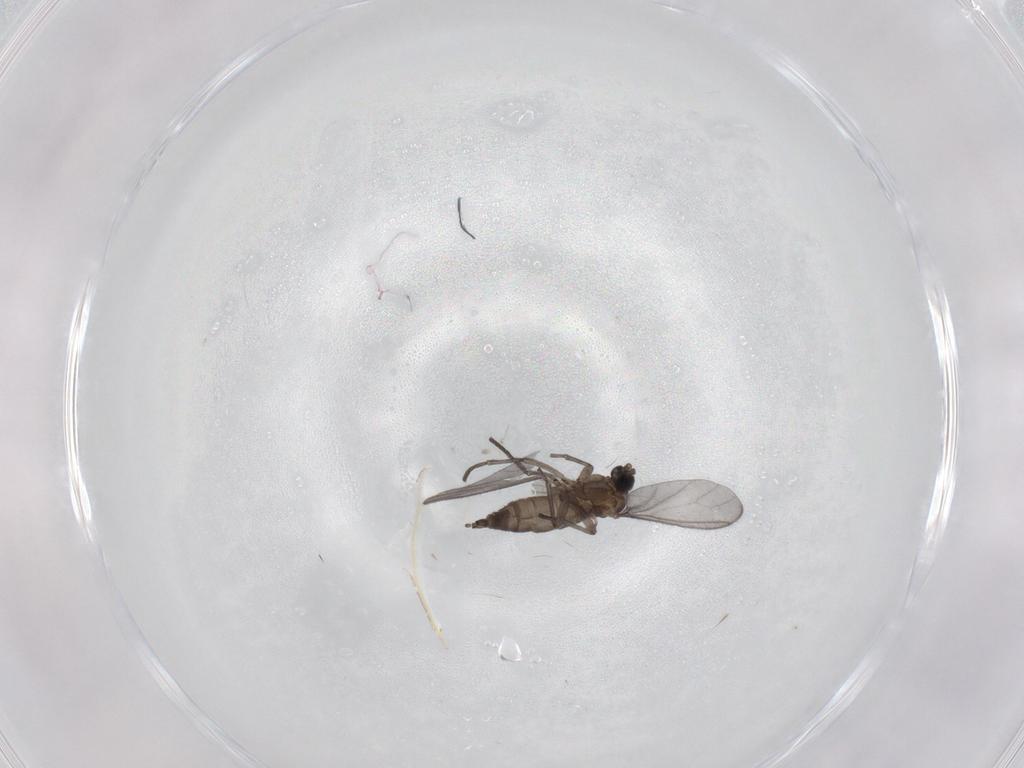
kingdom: Animalia
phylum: Arthropoda
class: Insecta
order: Diptera
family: Sciaridae
